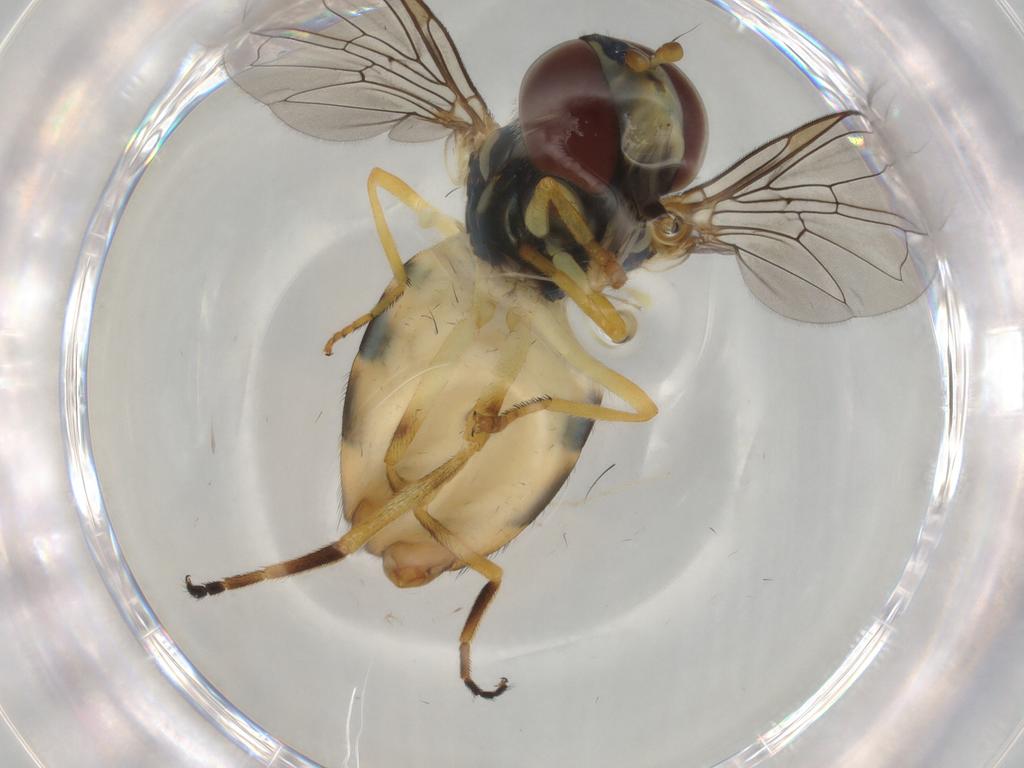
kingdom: Animalia
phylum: Arthropoda
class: Insecta
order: Diptera
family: Syrphidae
